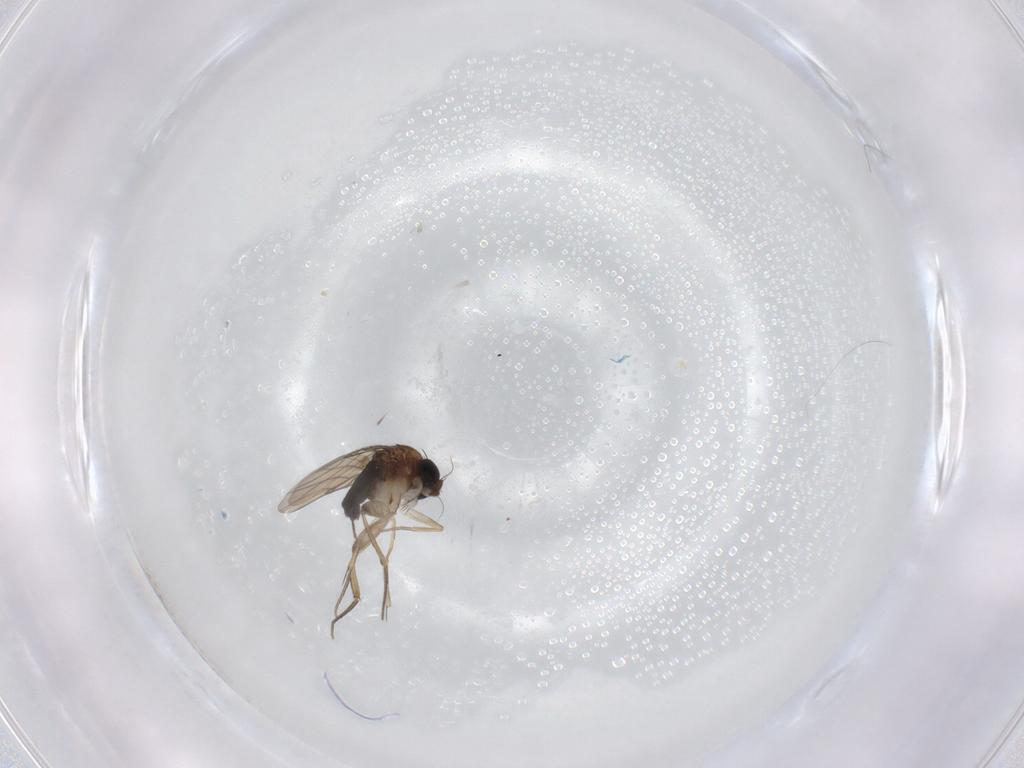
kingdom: Animalia
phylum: Arthropoda
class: Insecta
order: Diptera
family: Phoridae
